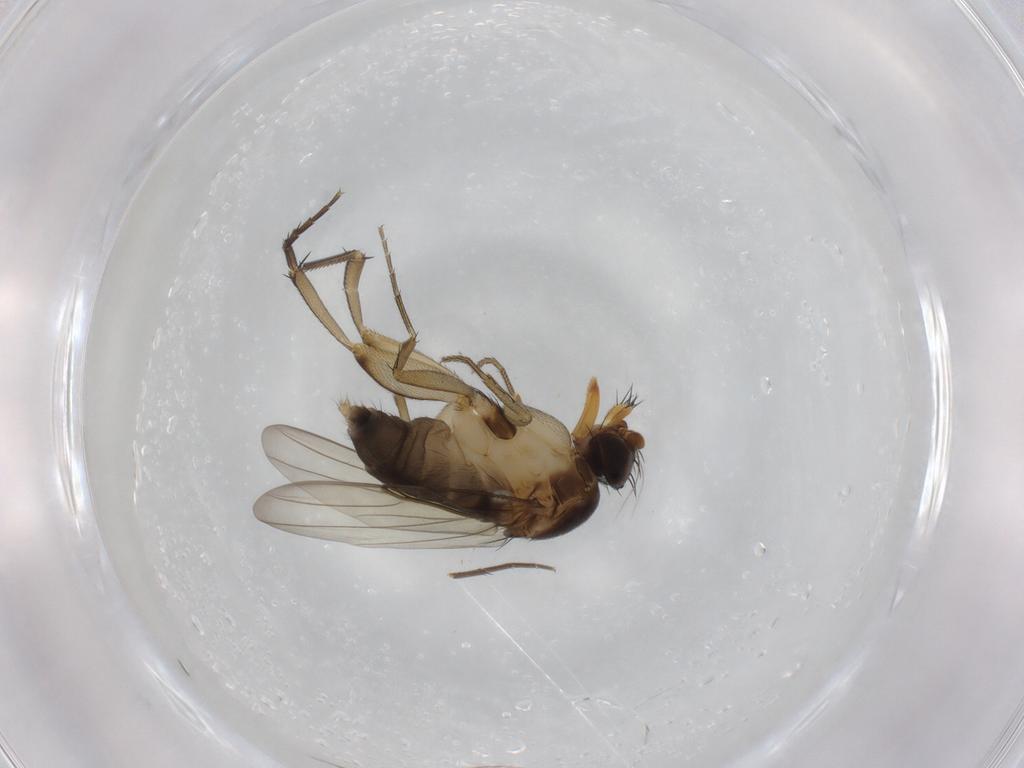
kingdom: Animalia
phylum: Arthropoda
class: Insecta
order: Diptera
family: Phoridae
